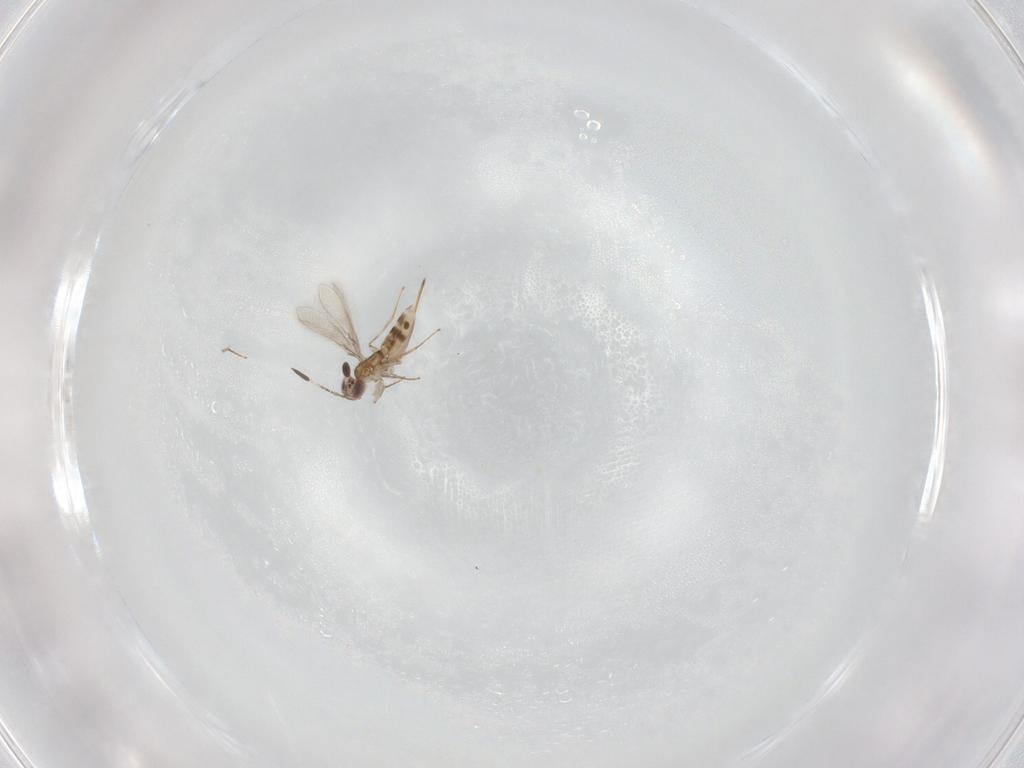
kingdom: Animalia
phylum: Arthropoda
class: Insecta
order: Hymenoptera
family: Mymaridae
